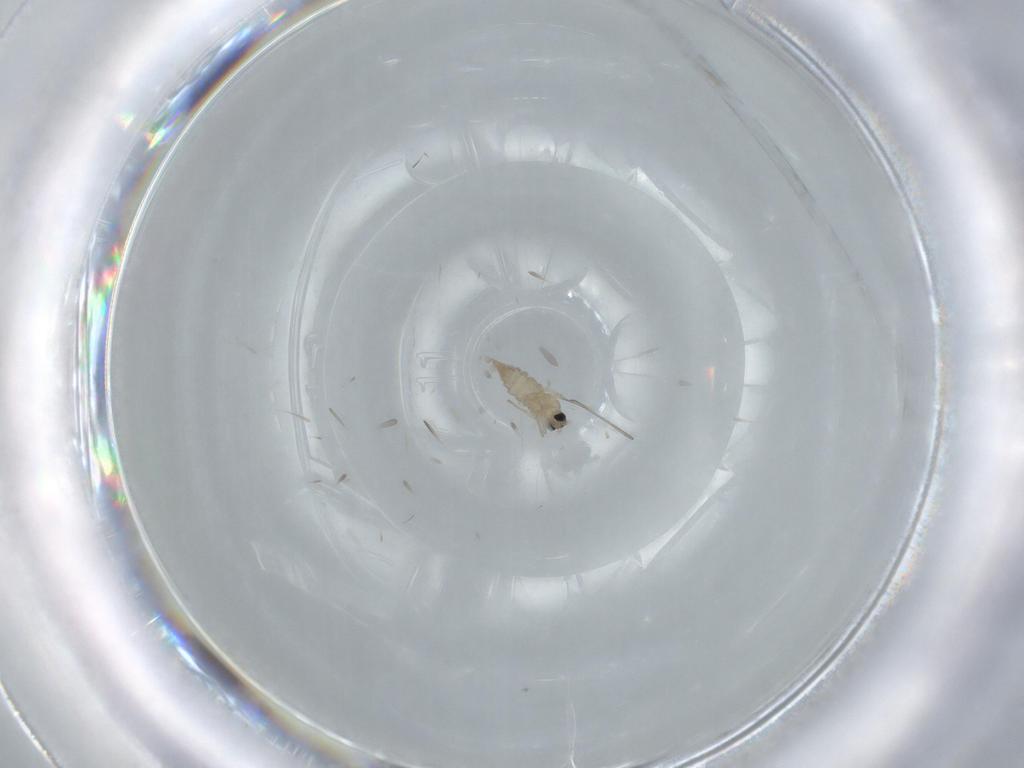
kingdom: Animalia
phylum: Arthropoda
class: Insecta
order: Diptera
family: Cecidomyiidae
